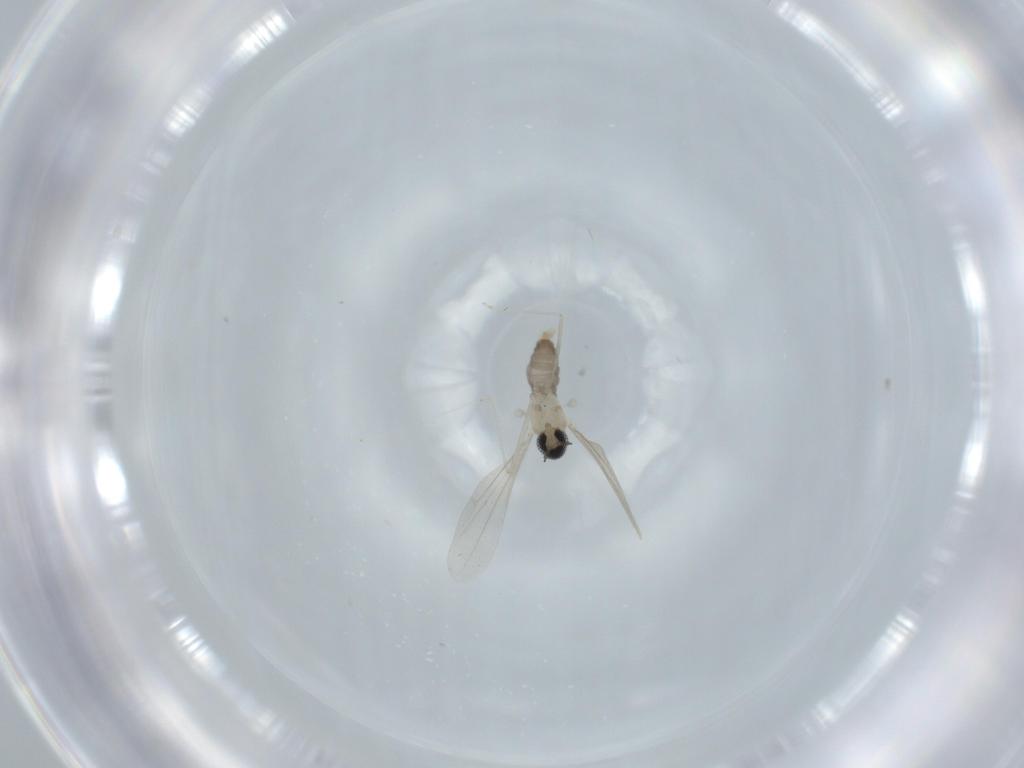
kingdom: Animalia
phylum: Arthropoda
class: Insecta
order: Diptera
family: Cecidomyiidae
